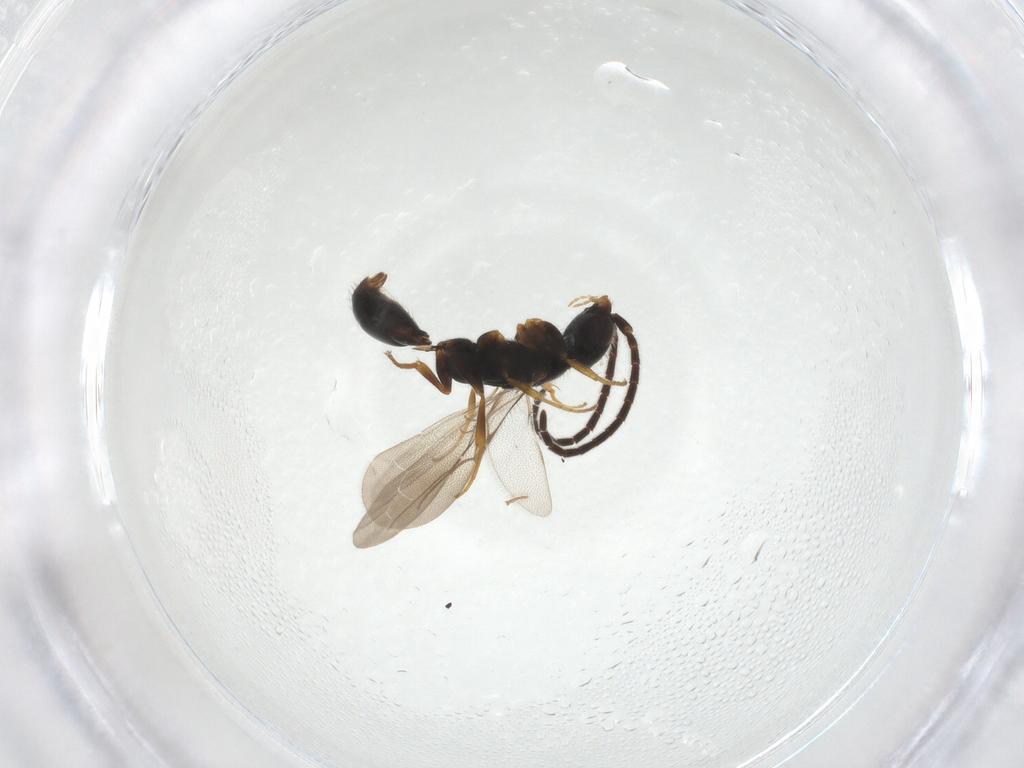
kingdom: Animalia
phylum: Arthropoda
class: Insecta
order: Hymenoptera
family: Bethylidae
